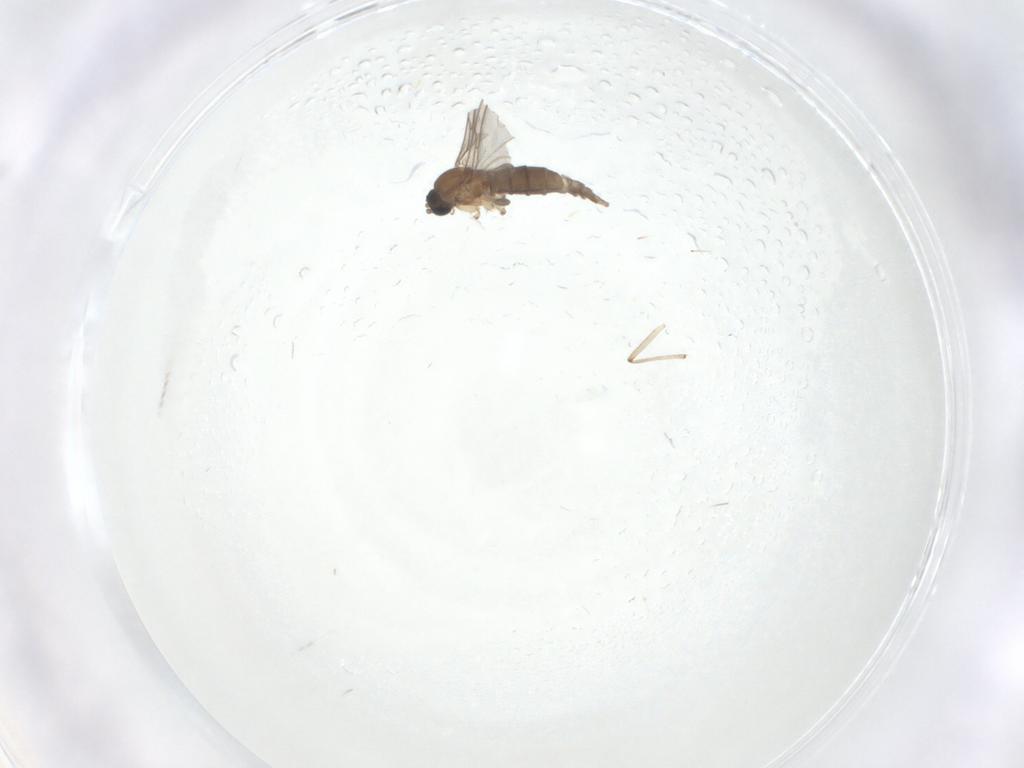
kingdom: Animalia
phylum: Arthropoda
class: Insecta
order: Diptera
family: Sciaridae
